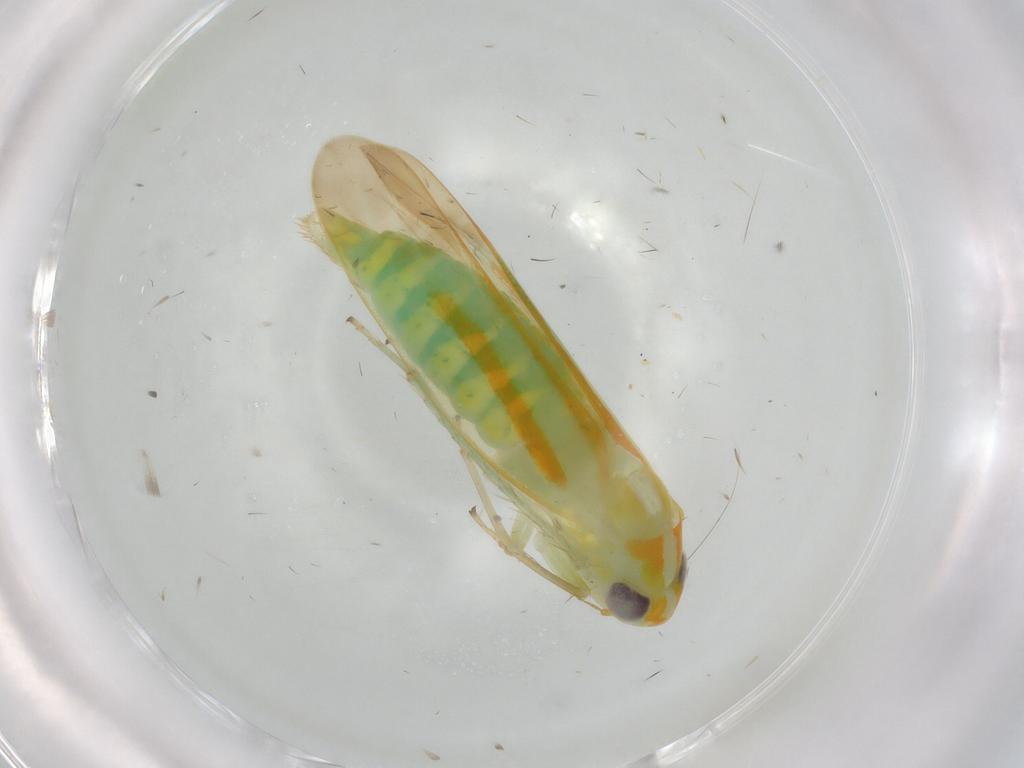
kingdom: Animalia
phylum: Arthropoda
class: Insecta
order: Hemiptera
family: Cicadellidae
